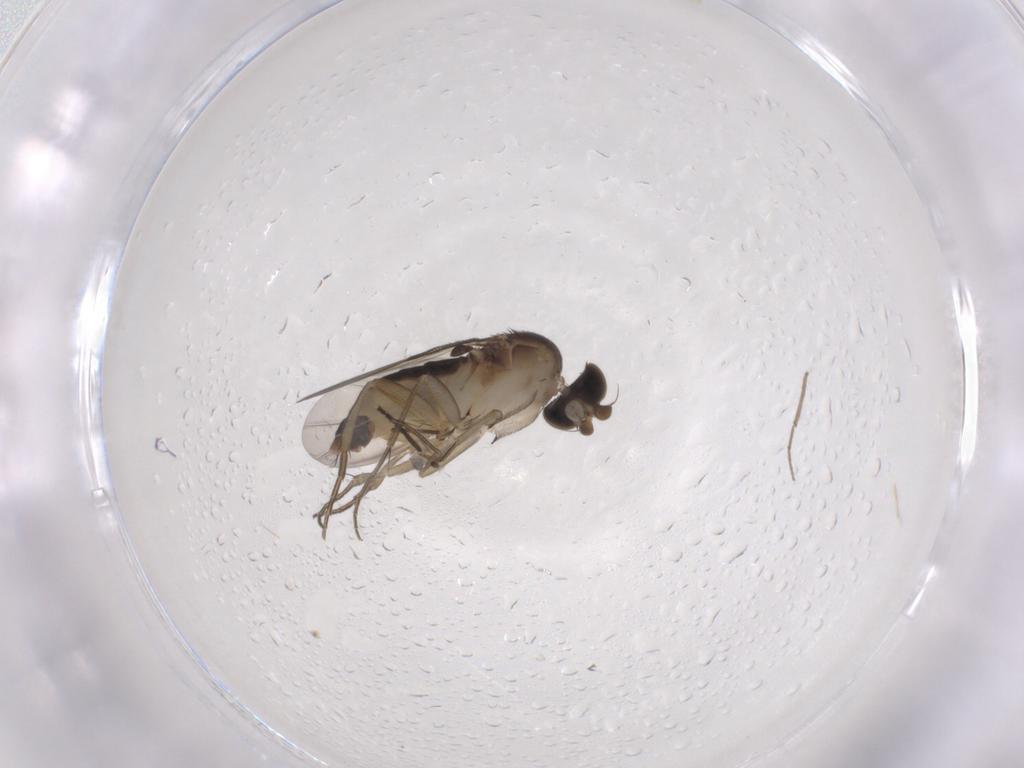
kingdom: Animalia
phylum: Arthropoda
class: Insecta
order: Diptera
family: Phoridae
